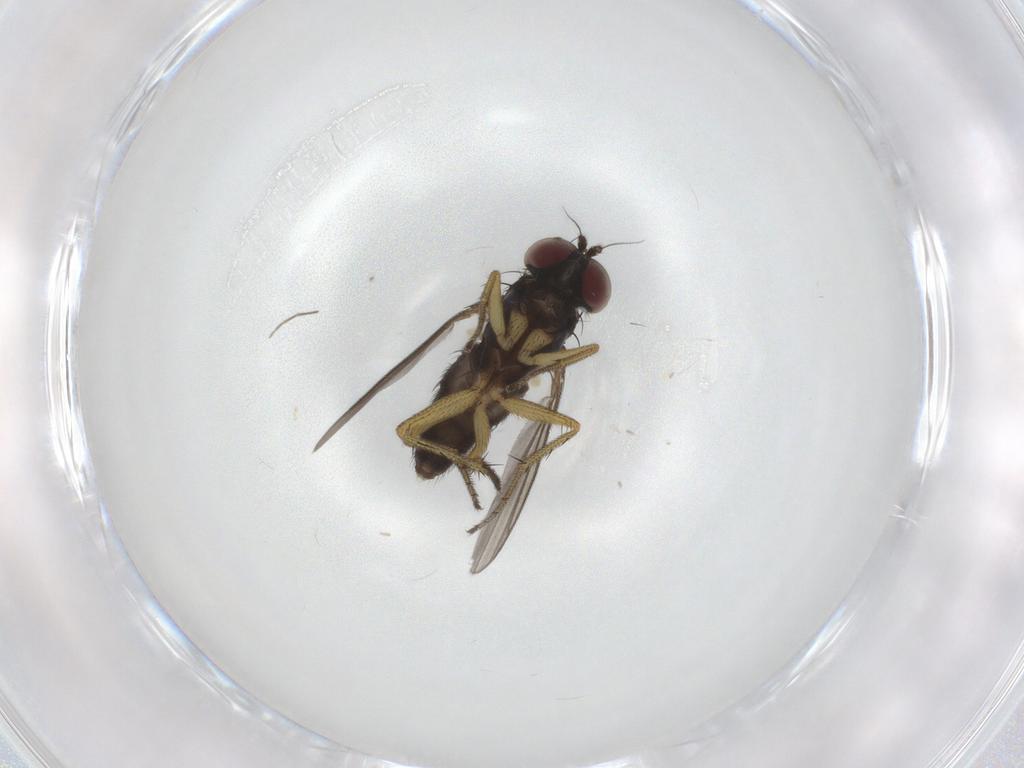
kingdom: Animalia
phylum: Arthropoda
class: Insecta
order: Diptera
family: Dolichopodidae
